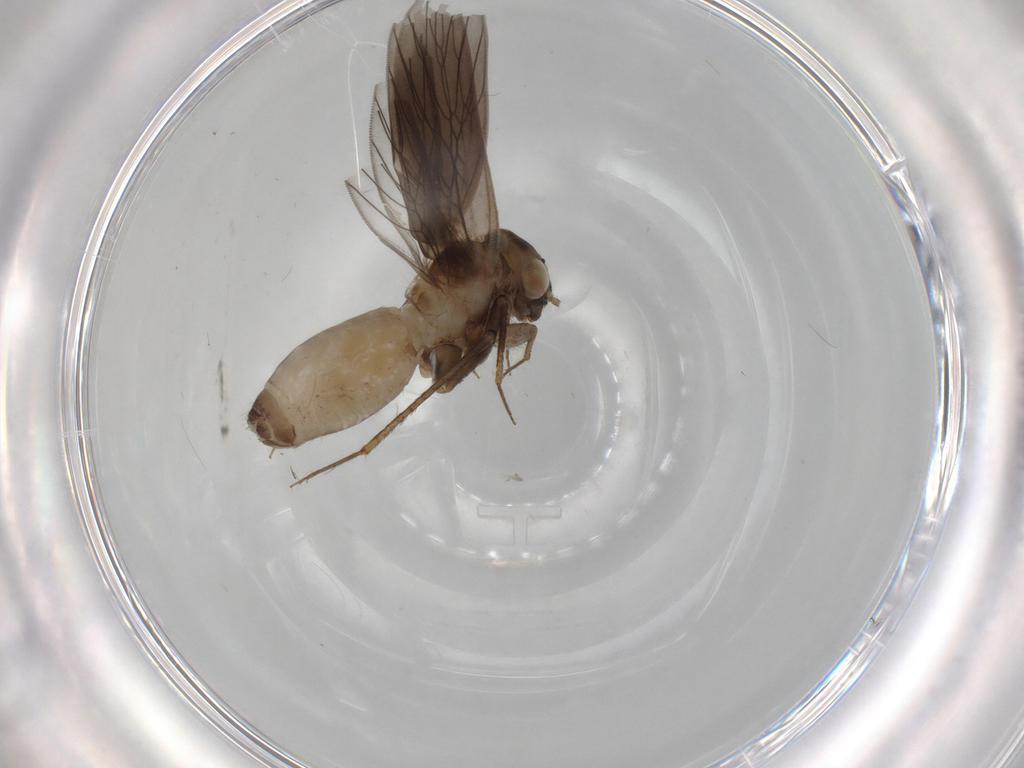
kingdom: Animalia
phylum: Arthropoda
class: Insecta
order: Psocodea
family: Lepidopsocidae
